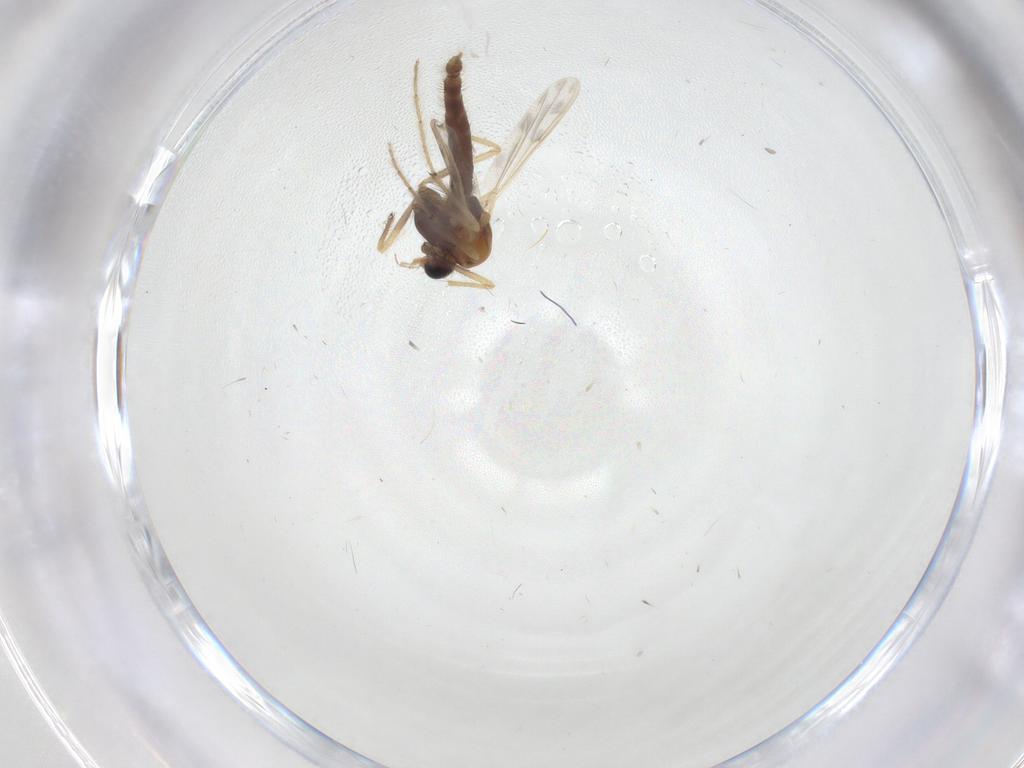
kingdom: Animalia
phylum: Arthropoda
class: Insecta
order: Diptera
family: Chironomidae
